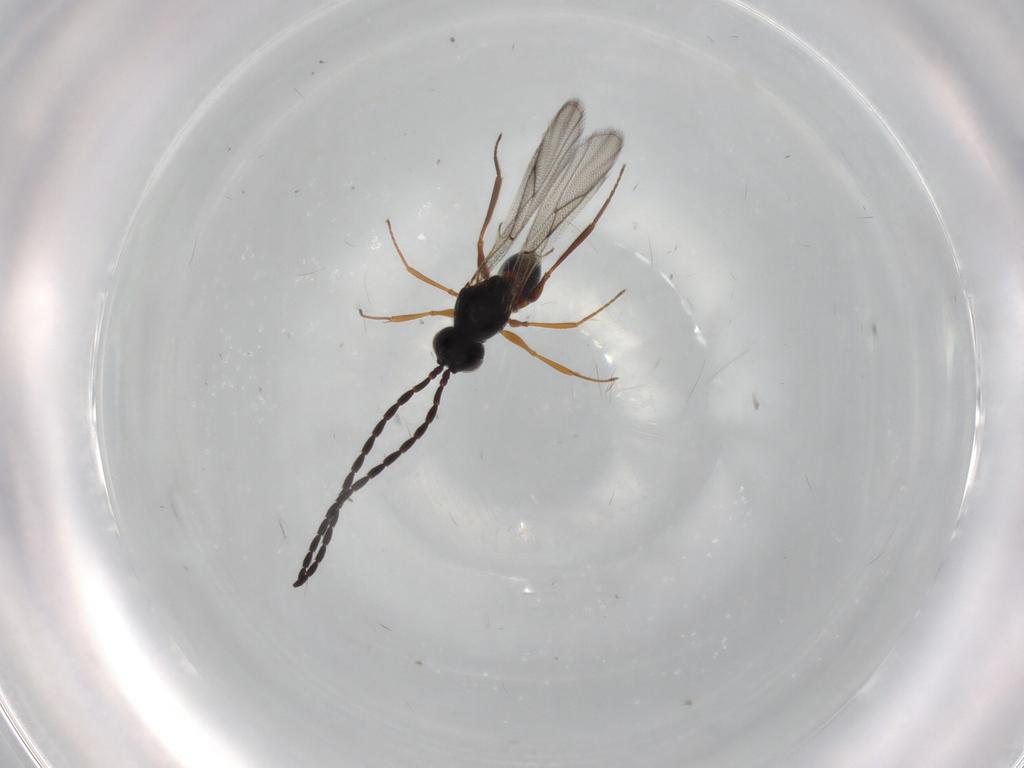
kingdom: Animalia
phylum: Arthropoda
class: Insecta
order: Hymenoptera
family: Figitidae
